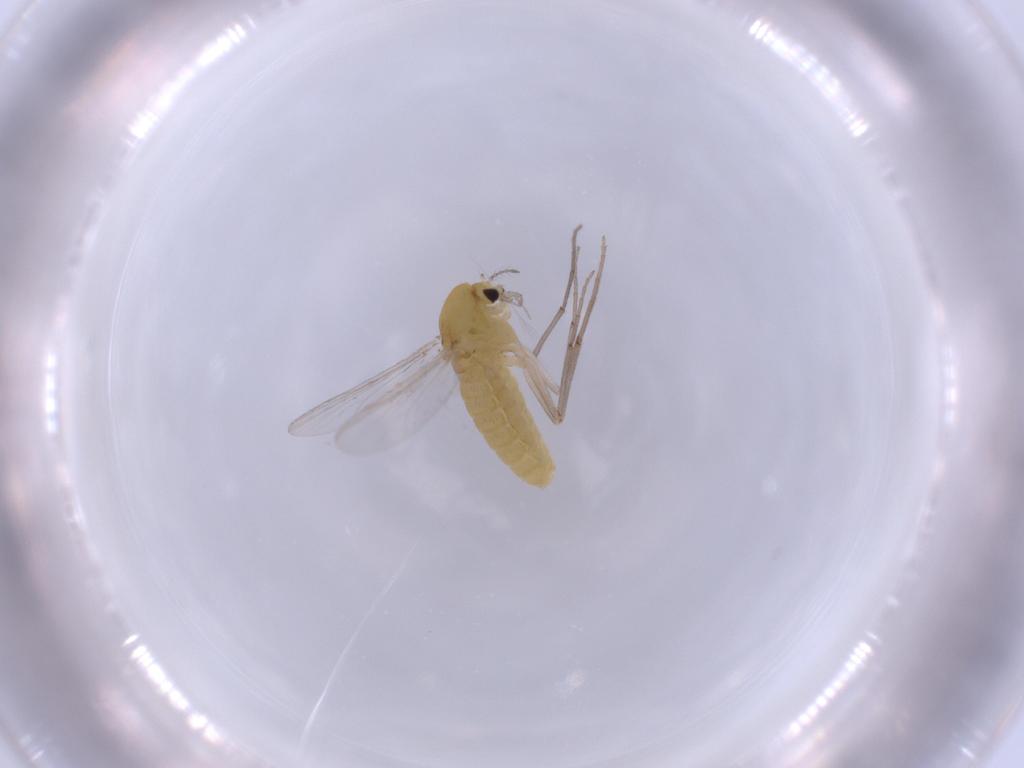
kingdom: Animalia
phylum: Arthropoda
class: Insecta
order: Diptera
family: Chironomidae
